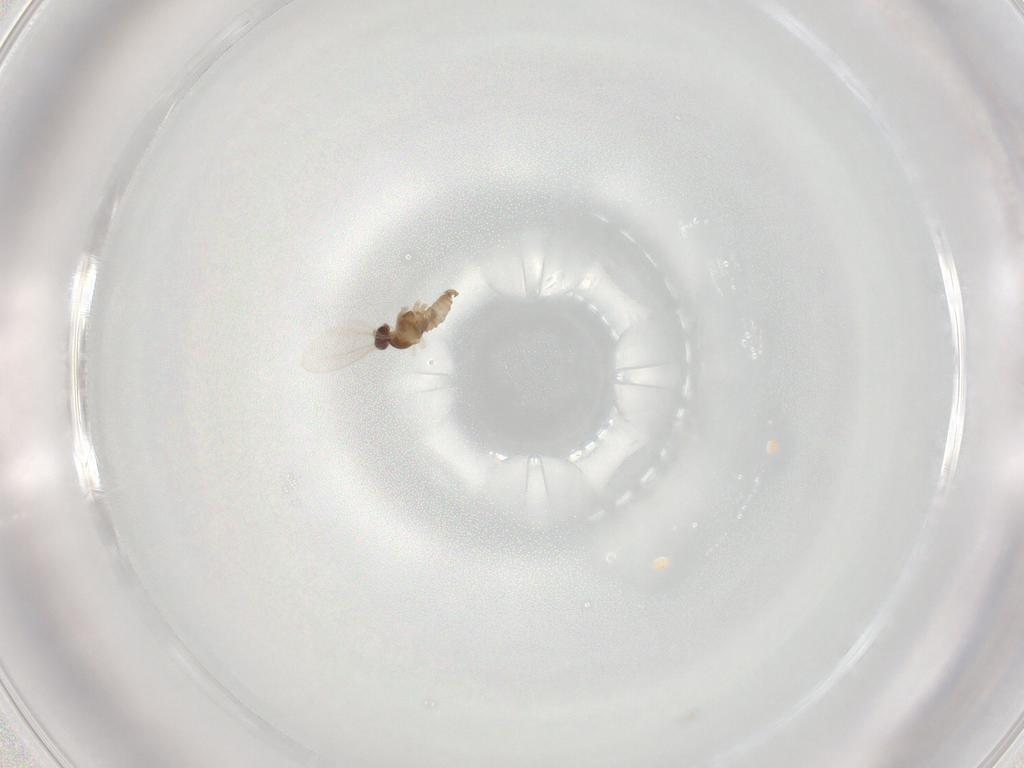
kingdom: Animalia
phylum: Arthropoda
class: Insecta
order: Diptera
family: Cecidomyiidae
